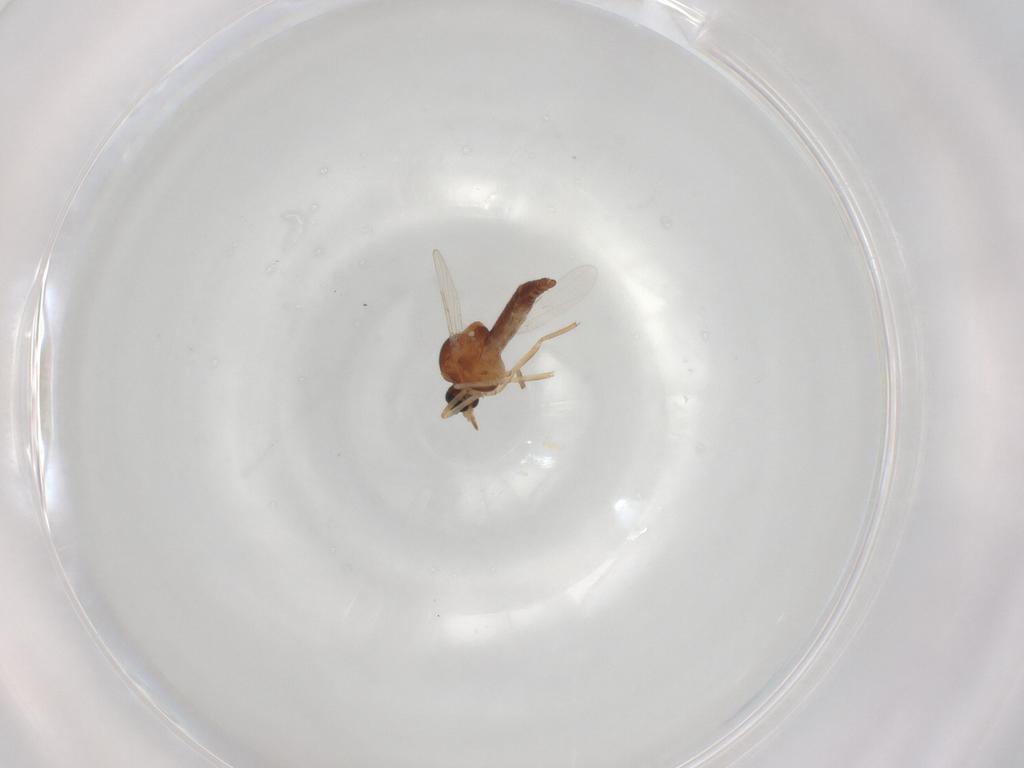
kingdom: Animalia
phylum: Arthropoda
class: Insecta
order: Diptera
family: Ceratopogonidae
